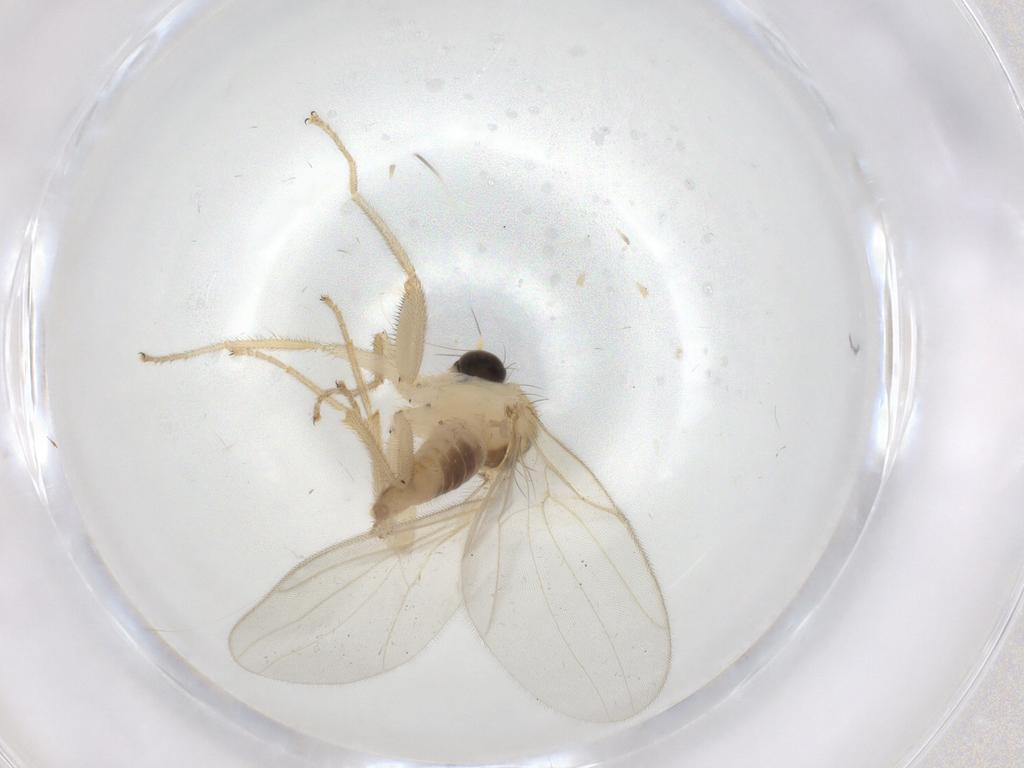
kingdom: Animalia
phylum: Arthropoda
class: Insecta
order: Diptera
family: Hybotidae
